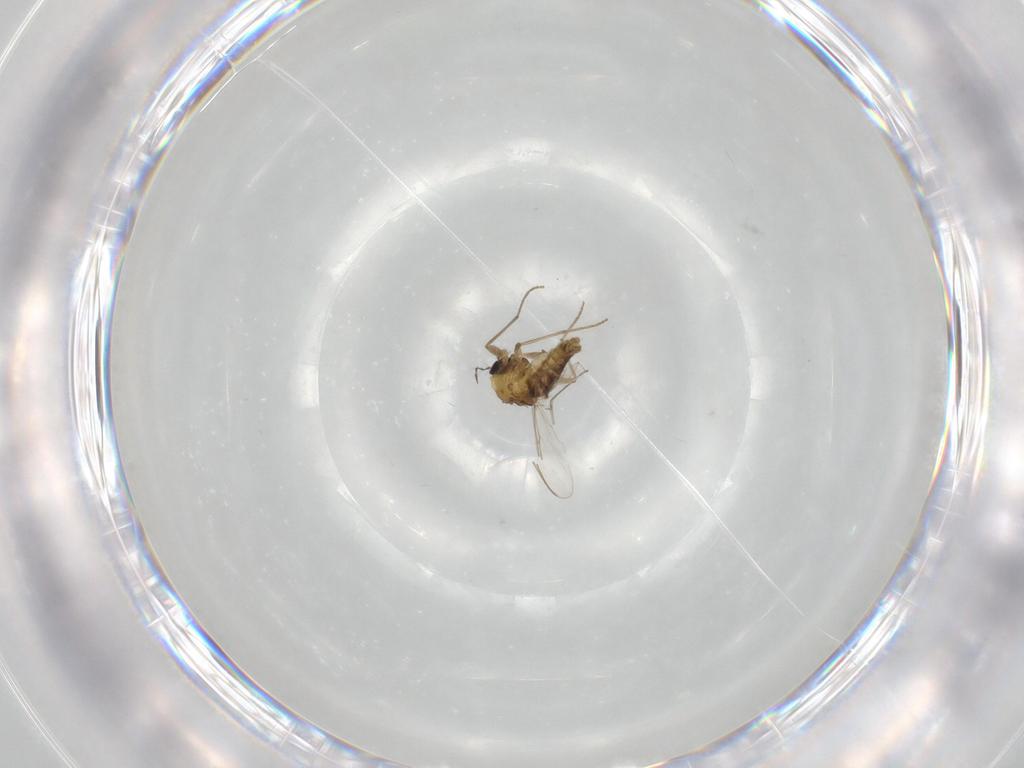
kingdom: Animalia
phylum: Arthropoda
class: Insecta
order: Diptera
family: Chironomidae
